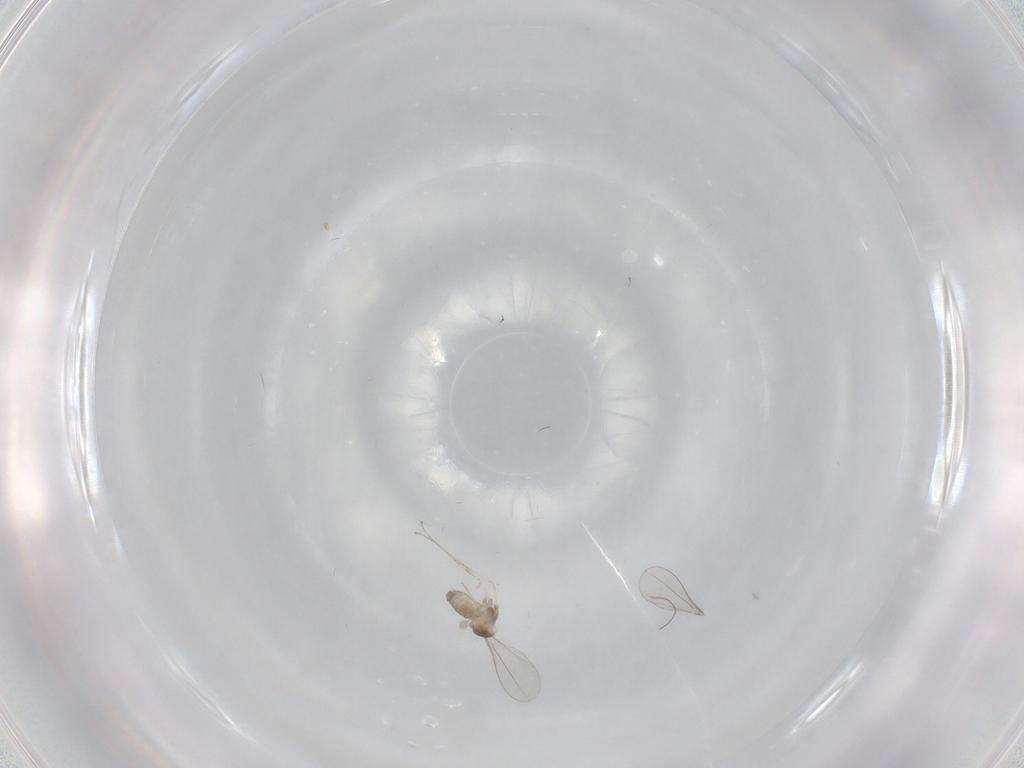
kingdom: Animalia
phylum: Arthropoda
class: Insecta
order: Diptera
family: Cecidomyiidae
